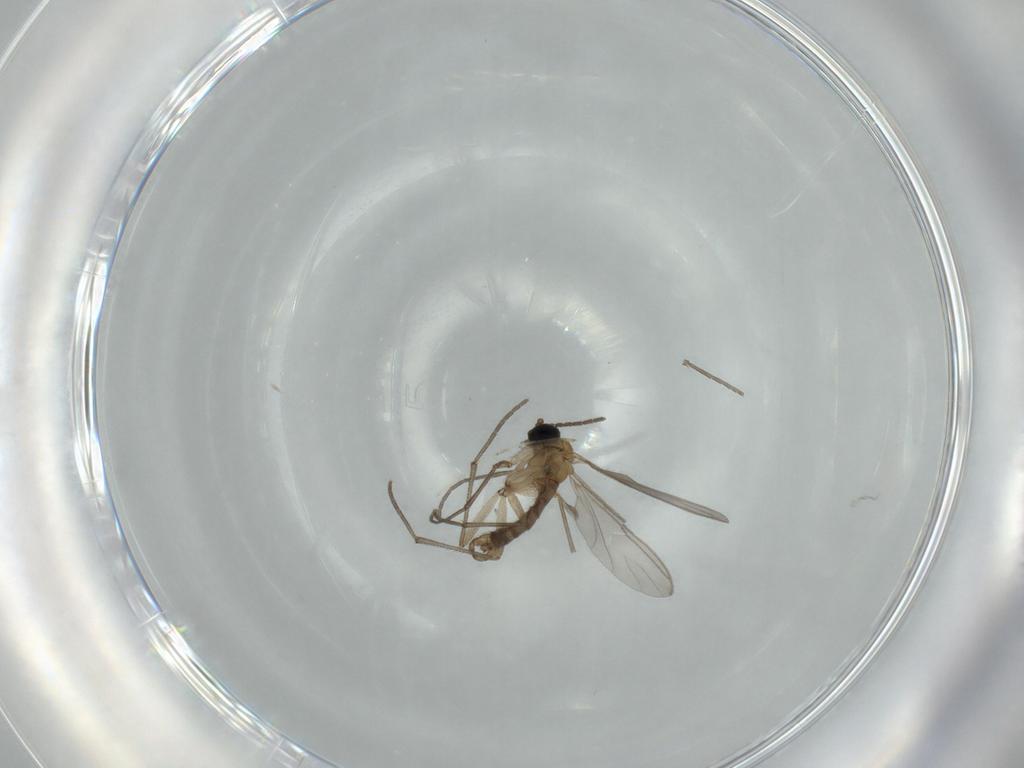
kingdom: Animalia
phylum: Arthropoda
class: Insecta
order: Diptera
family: Sciaridae
